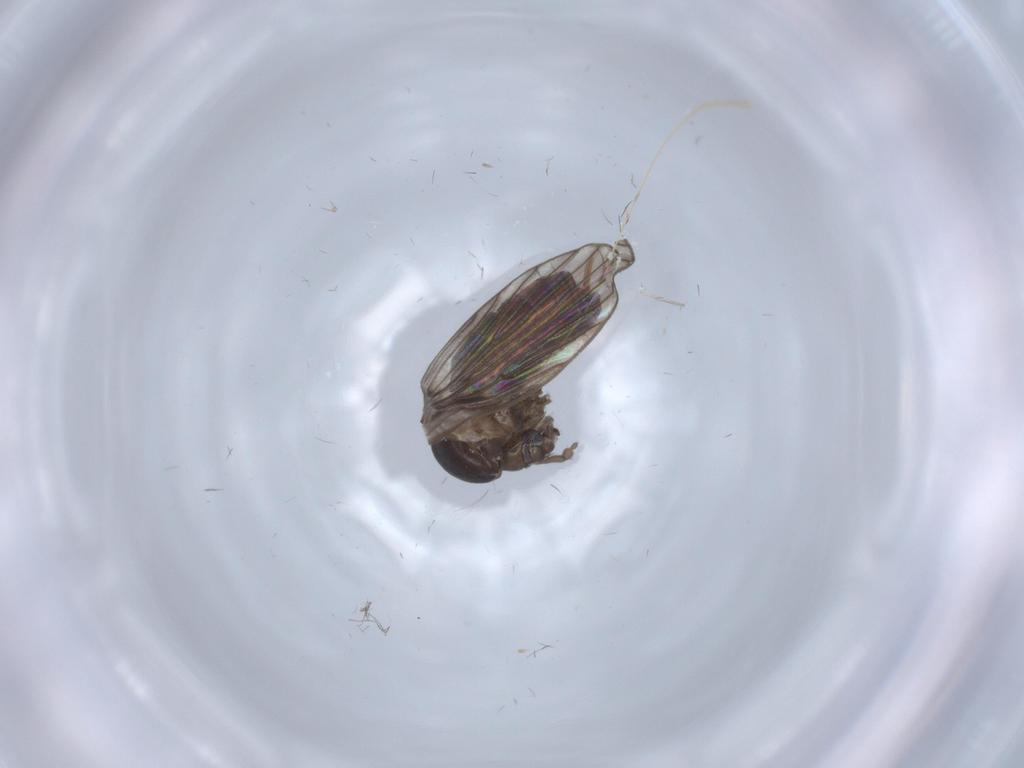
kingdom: Animalia
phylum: Arthropoda
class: Insecta
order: Diptera
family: Psychodidae
